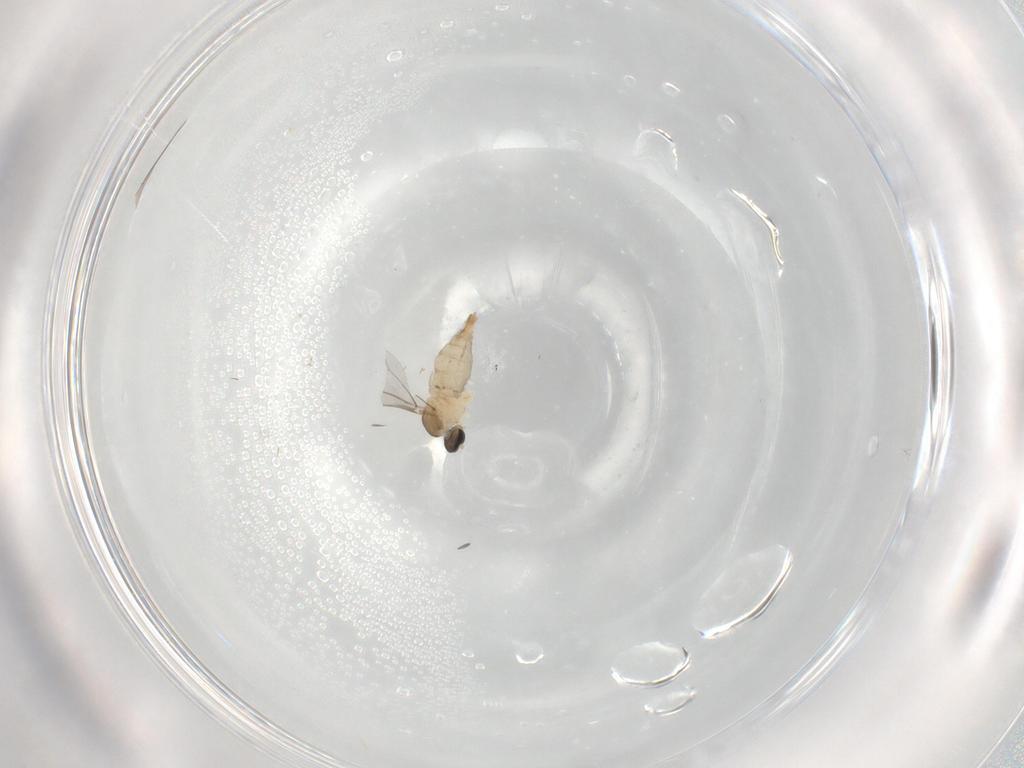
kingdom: Animalia
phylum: Arthropoda
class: Insecta
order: Diptera
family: Cecidomyiidae
